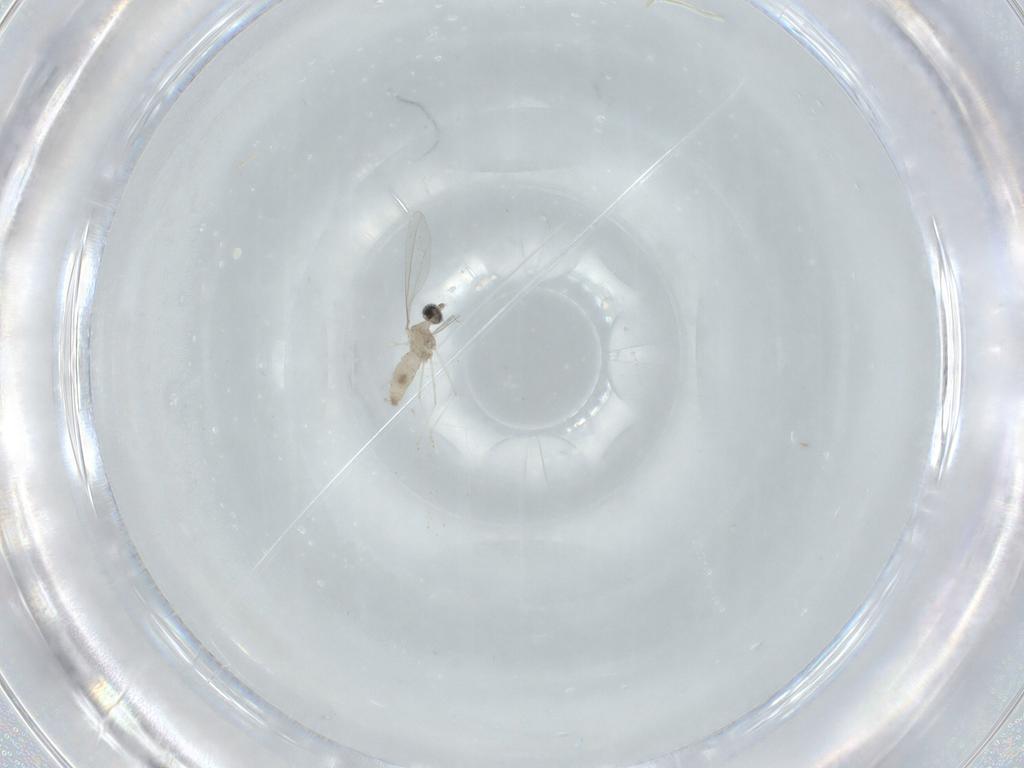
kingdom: Animalia
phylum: Arthropoda
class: Insecta
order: Diptera
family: Cecidomyiidae
